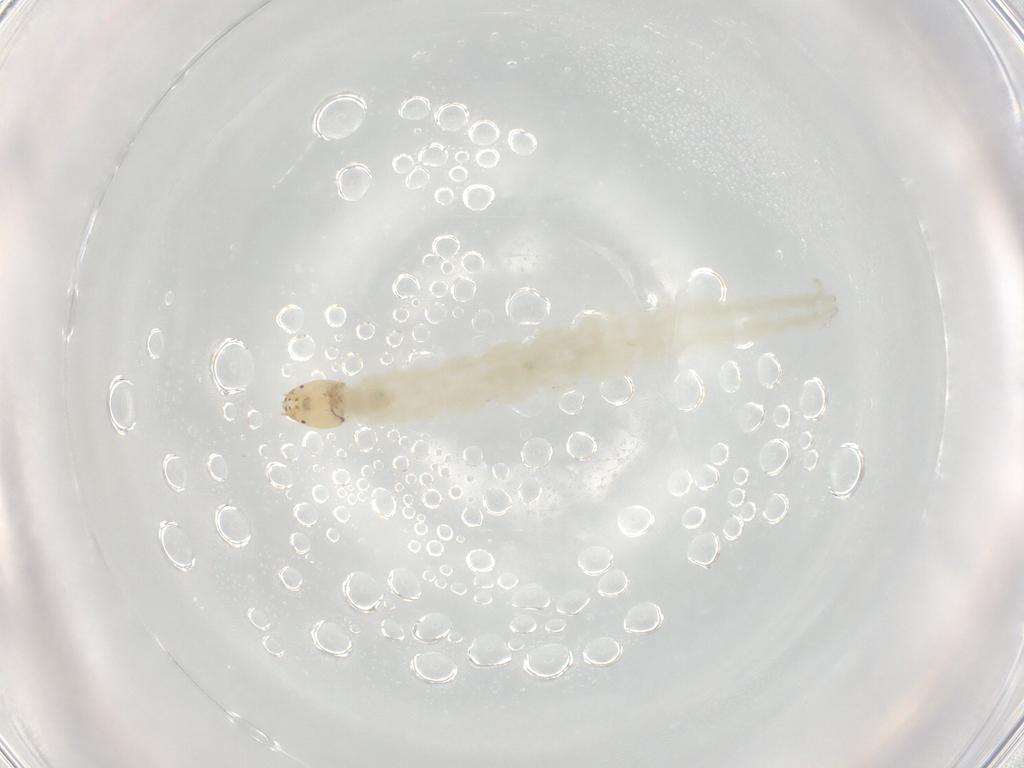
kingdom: Animalia
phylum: Arthropoda
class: Insecta
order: Diptera
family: Chironomidae
